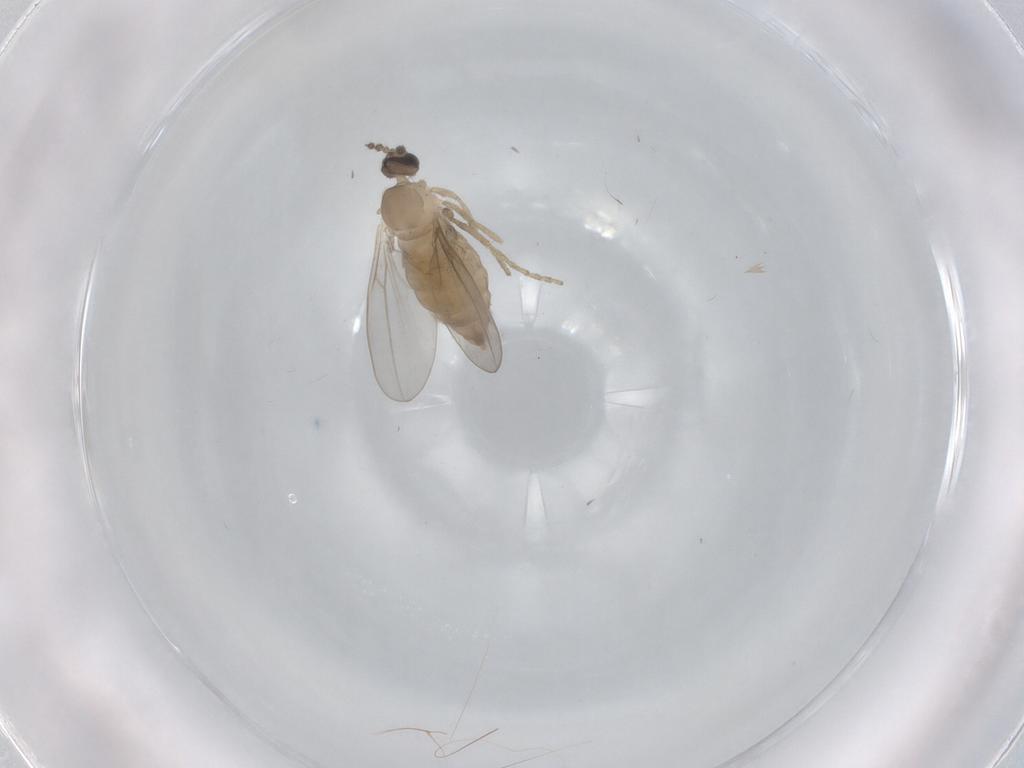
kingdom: Animalia
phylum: Arthropoda
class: Insecta
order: Diptera
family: Cecidomyiidae
